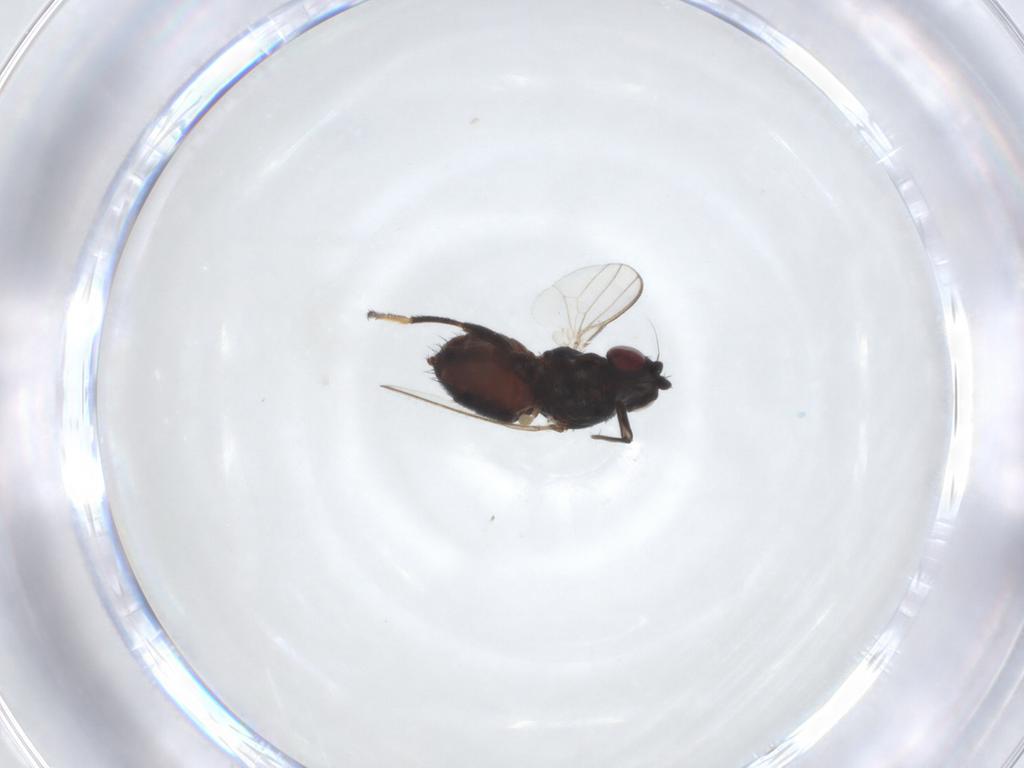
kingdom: Animalia
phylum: Arthropoda
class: Insecta
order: Diptera
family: Milichiidae
